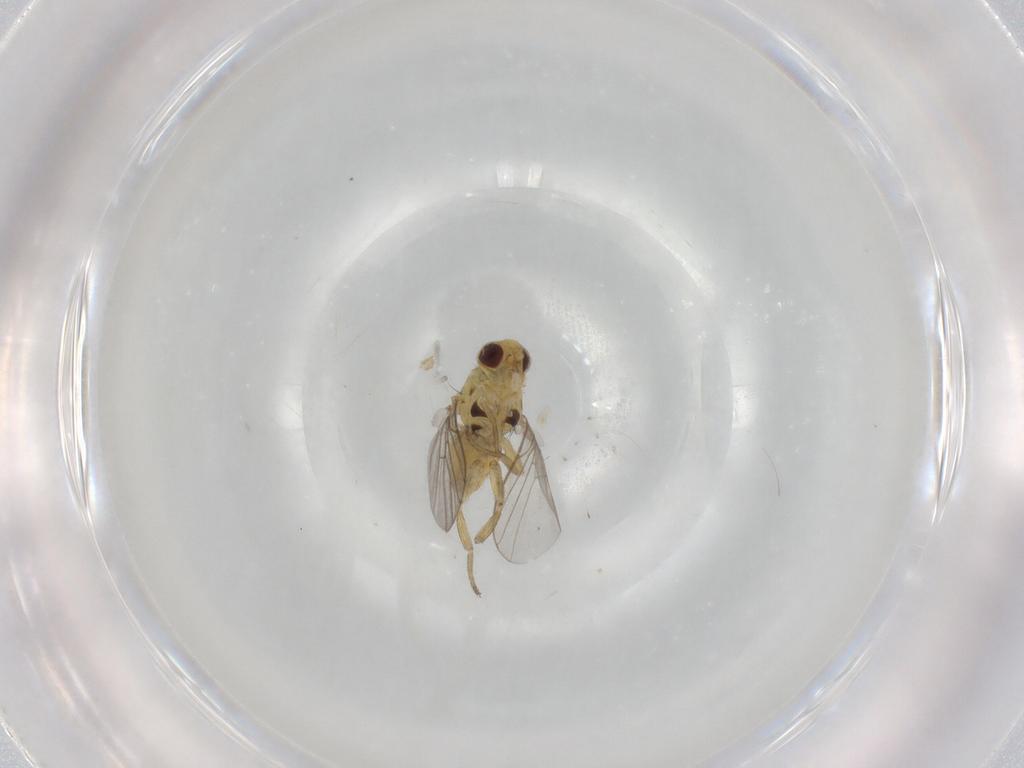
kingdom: Animalia
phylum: Arthropoda
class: Insecta
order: Diptera
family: Agromyzidae
